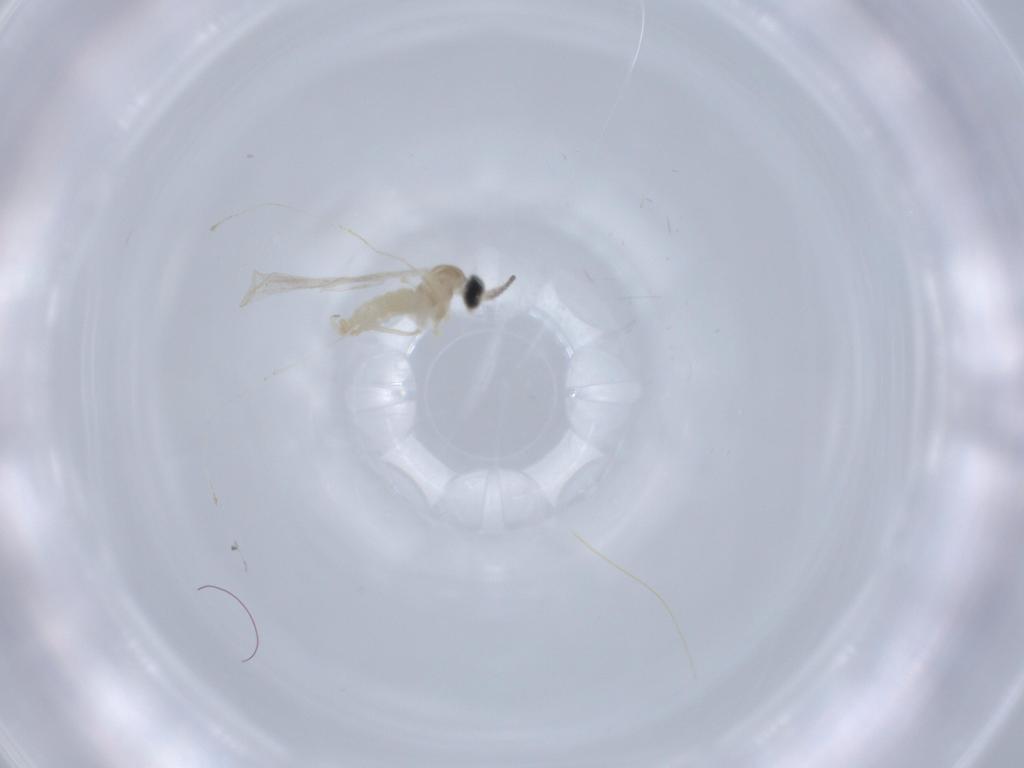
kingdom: Animalia
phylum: Arthropoda
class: Insecta
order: Diptera
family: Cecidomyiidae
